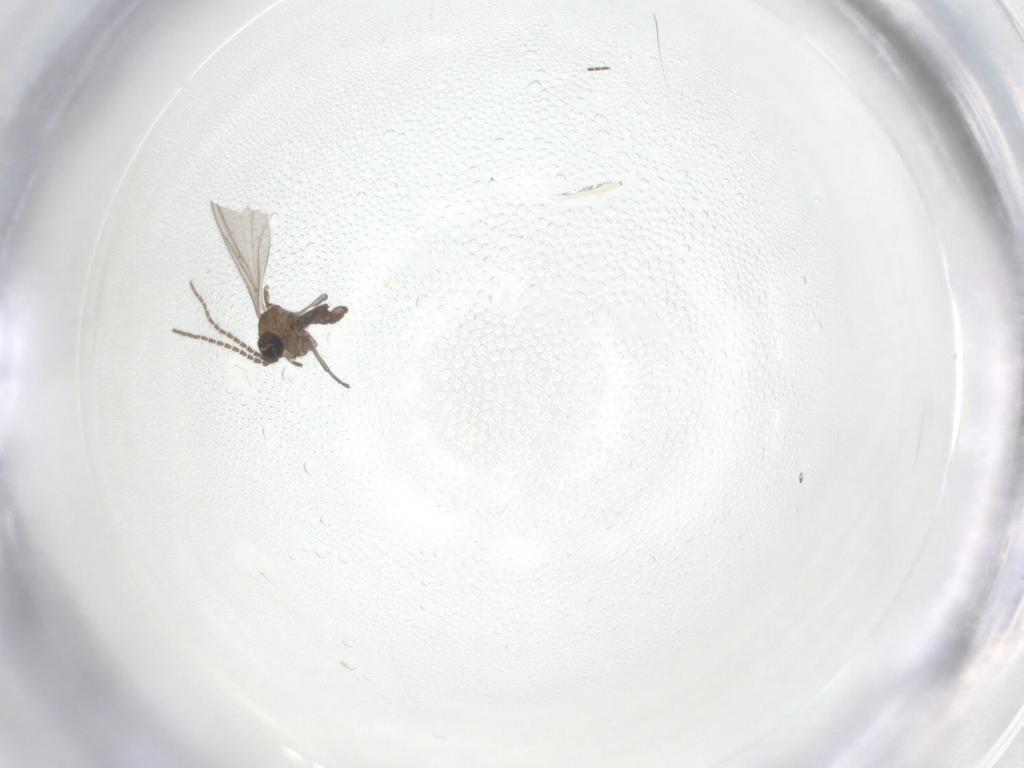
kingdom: Animalia
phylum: Arthropoda
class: Insecta
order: Diptera
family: Sciaridae
